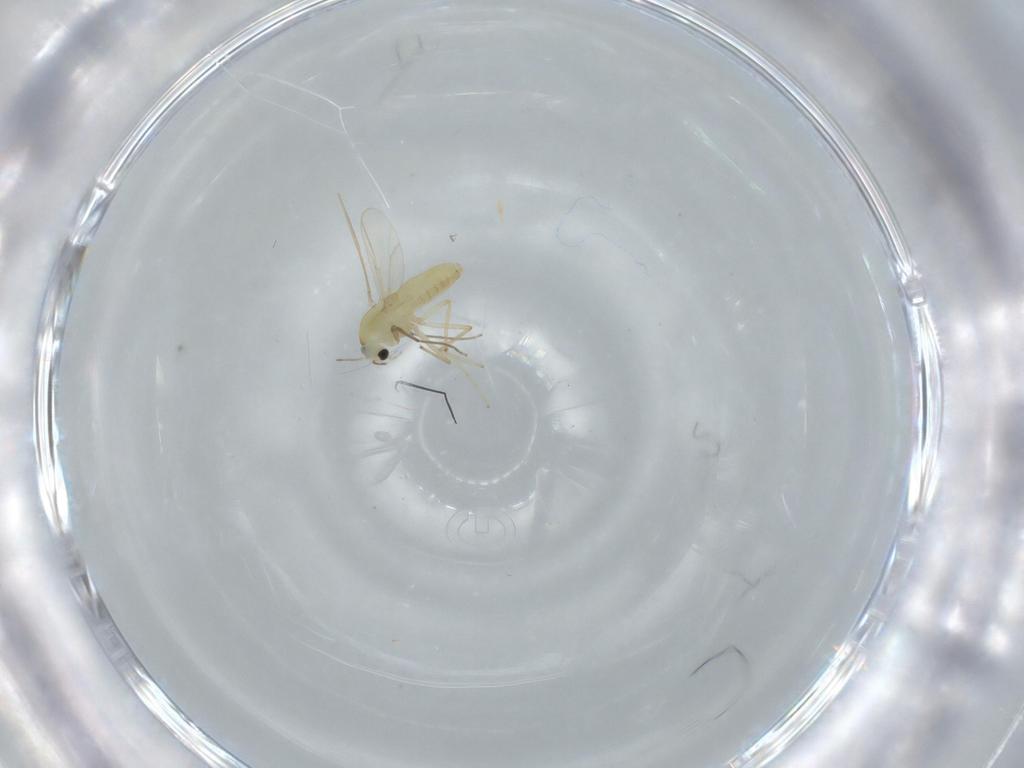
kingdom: Animalia
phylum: Arthropoda
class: Insecta
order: Diptera
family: Chironomidae
